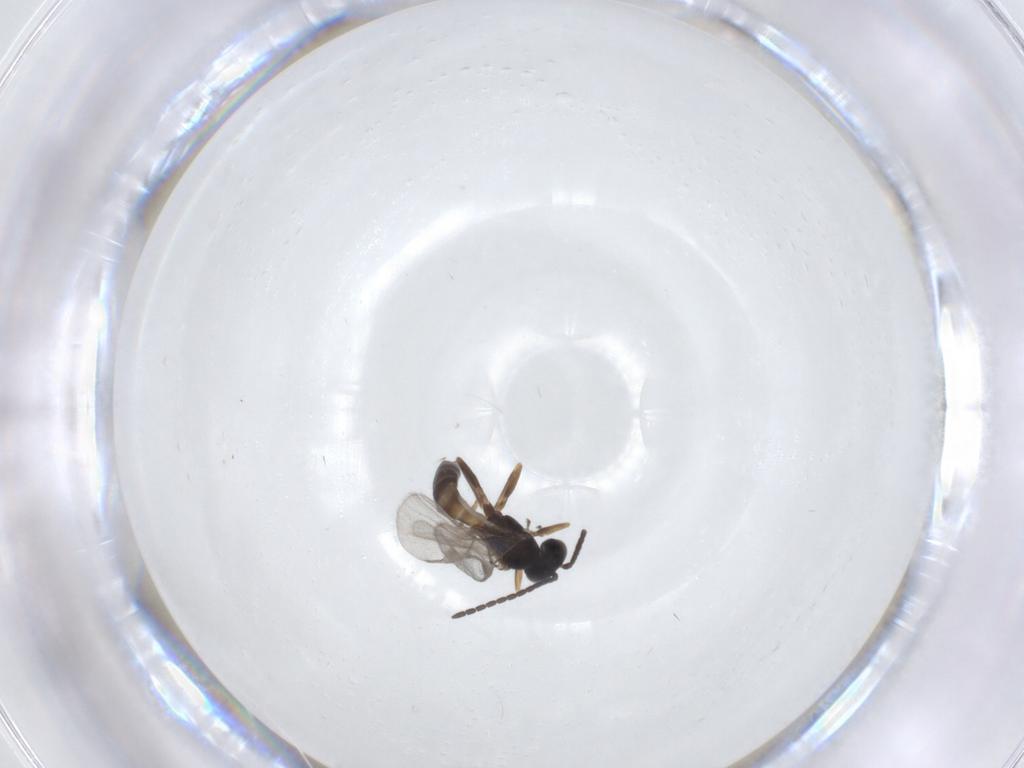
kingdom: Animalia
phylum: Arthropoda
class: Insecta
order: Hymenoptera
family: Braconidae
